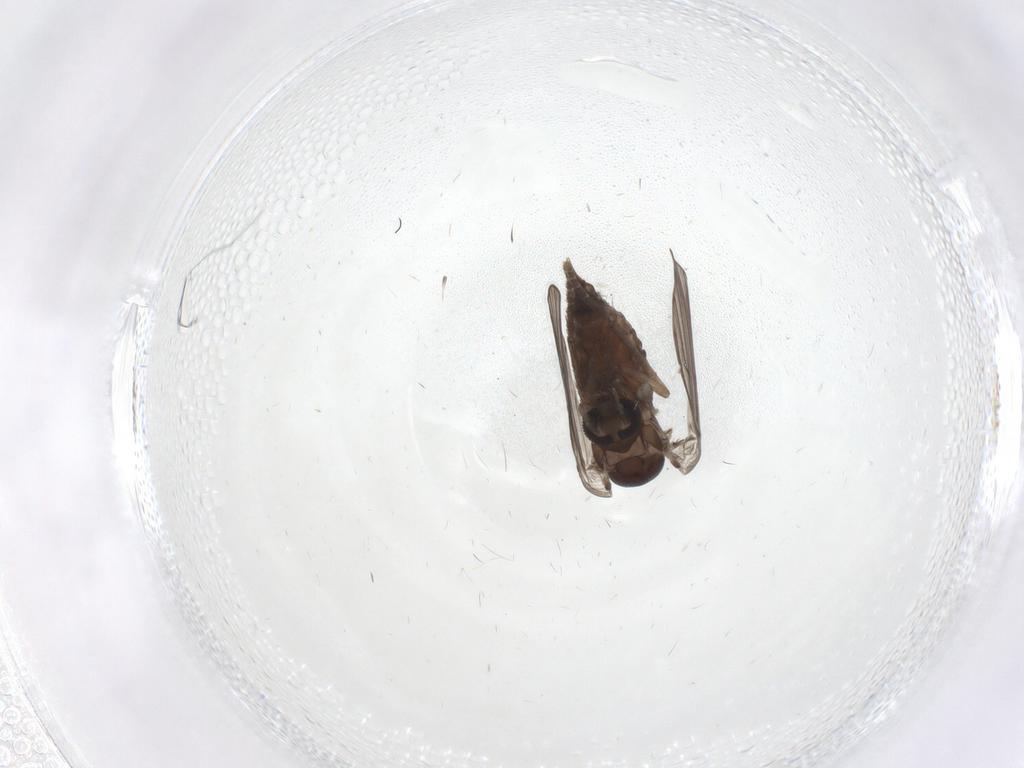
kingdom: Animalia
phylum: Arthropoda
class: Insecta
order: Diptera
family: Psychodidae
